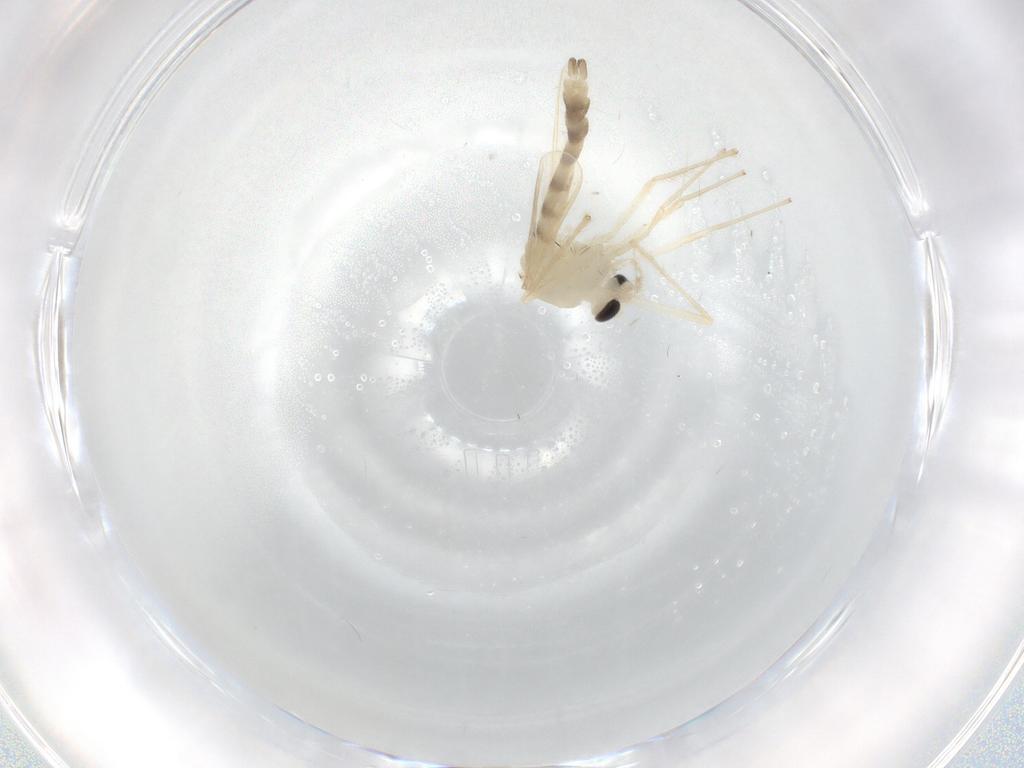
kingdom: Animalia
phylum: Arthropoda
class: Insecta
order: Diptera
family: Chironomidae
